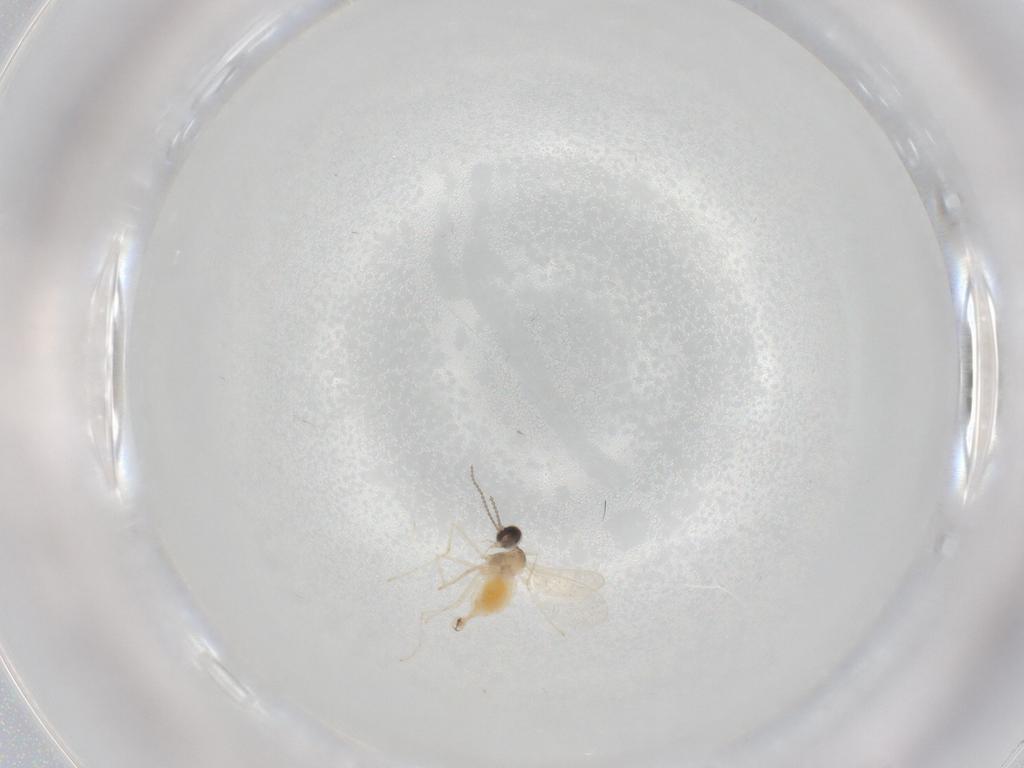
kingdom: Animalia
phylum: Arthropoda
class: Insecta
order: Diptera
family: Cecidomyiidae
